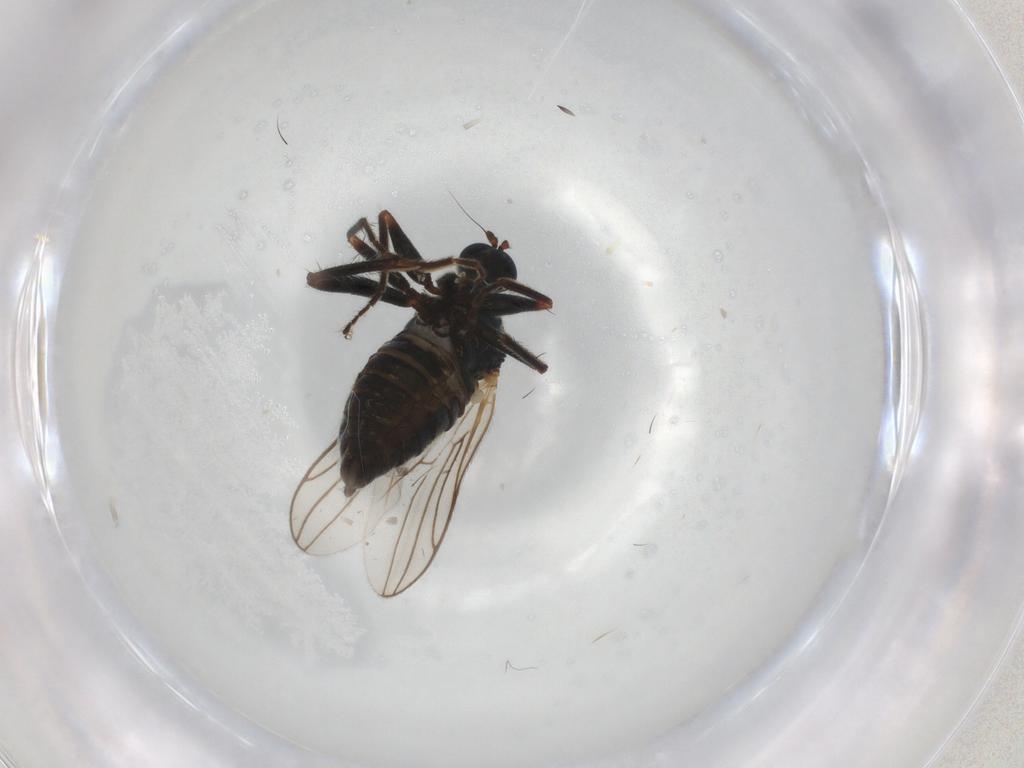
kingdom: Animalia
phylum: Arthropoda
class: Insecta
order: Diptera
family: Hybotidae
